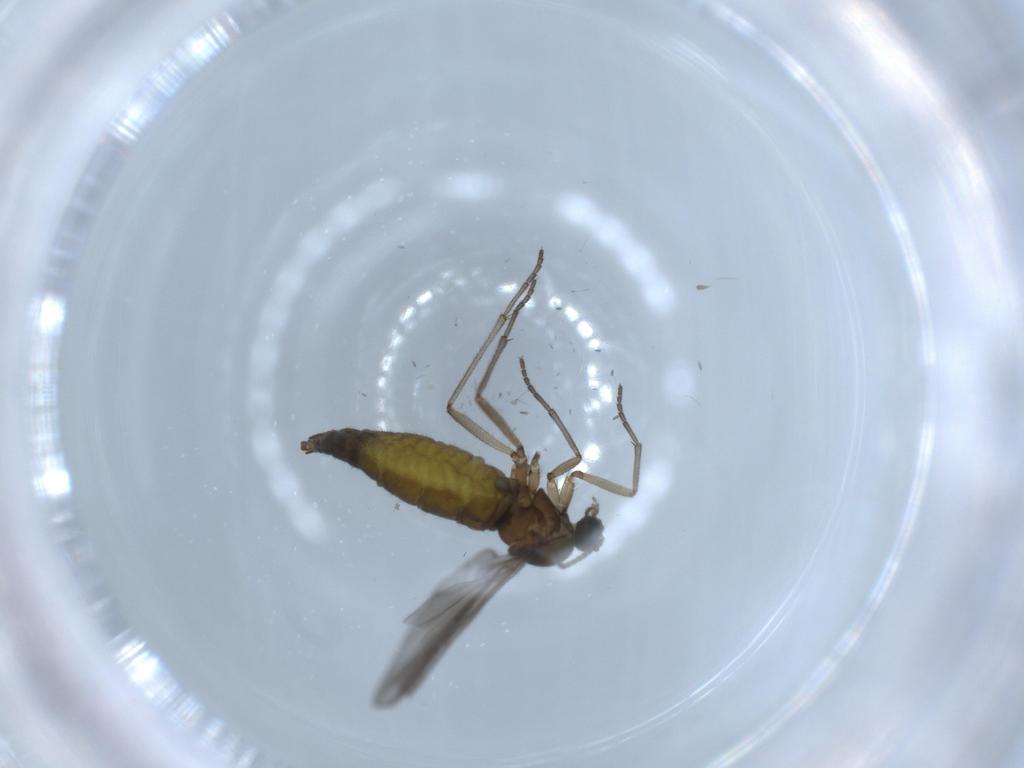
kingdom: Animalia
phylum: Arthropoda
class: Insecta
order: Diptera
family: Sciaridae
